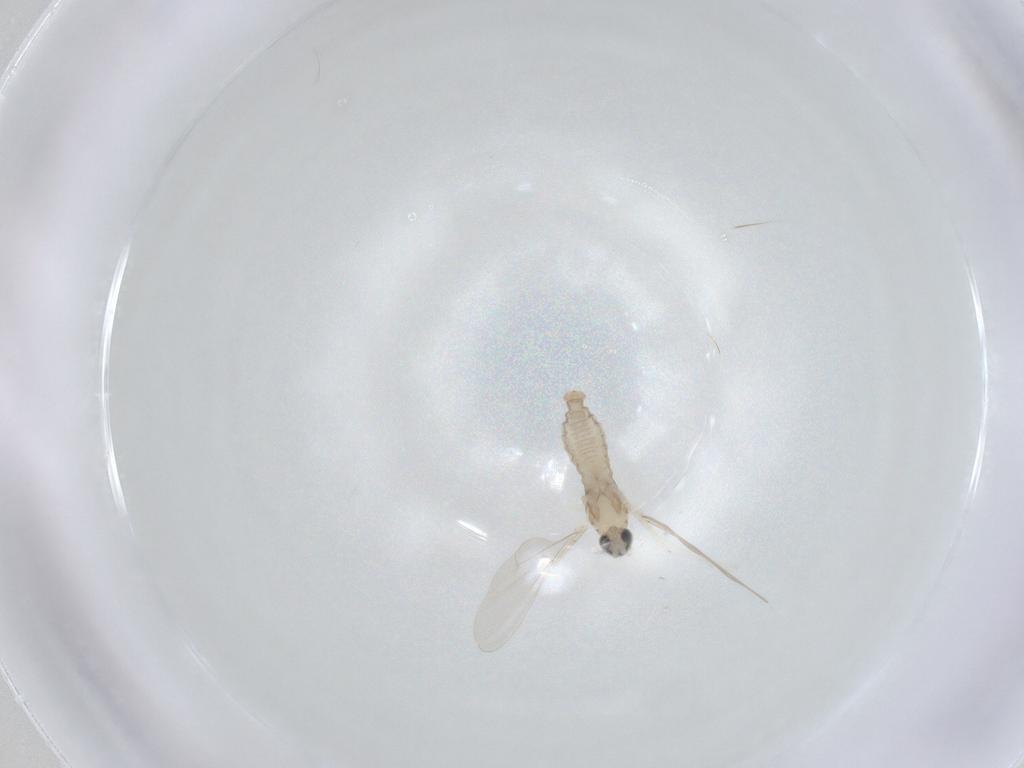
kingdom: Animalia
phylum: Arthropoda
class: Insecta
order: Diptera
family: Cecidomyiidae
